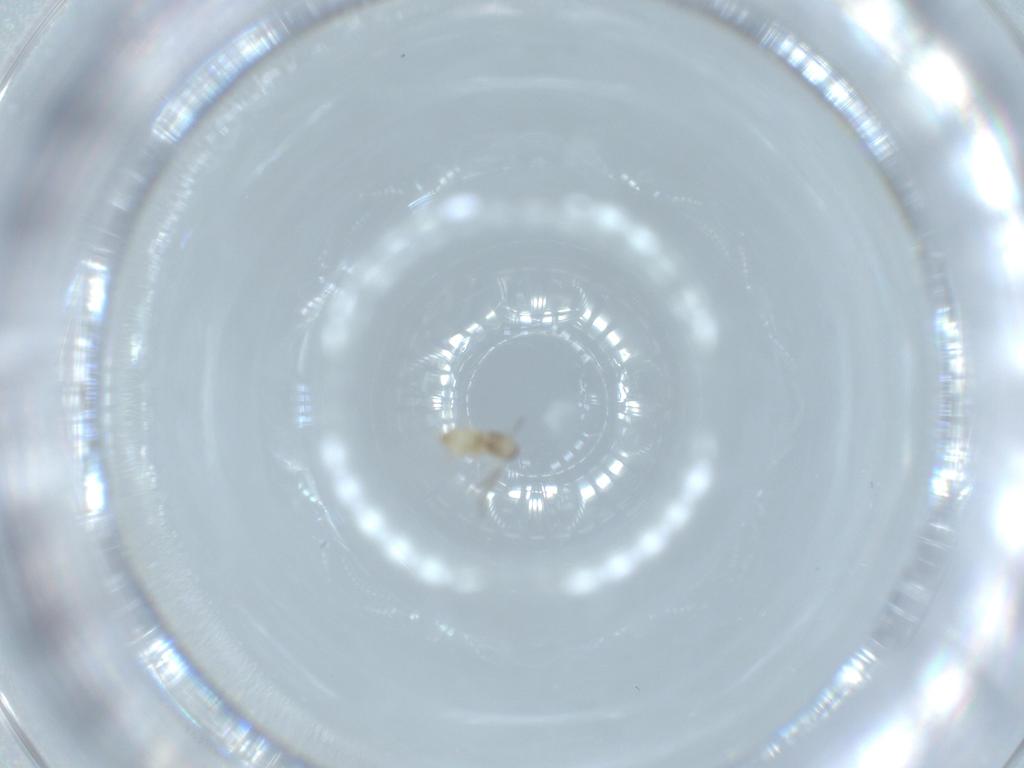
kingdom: Animalia
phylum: Arthropoda
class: Insecta
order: Diptera
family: Cecidomyiidae
